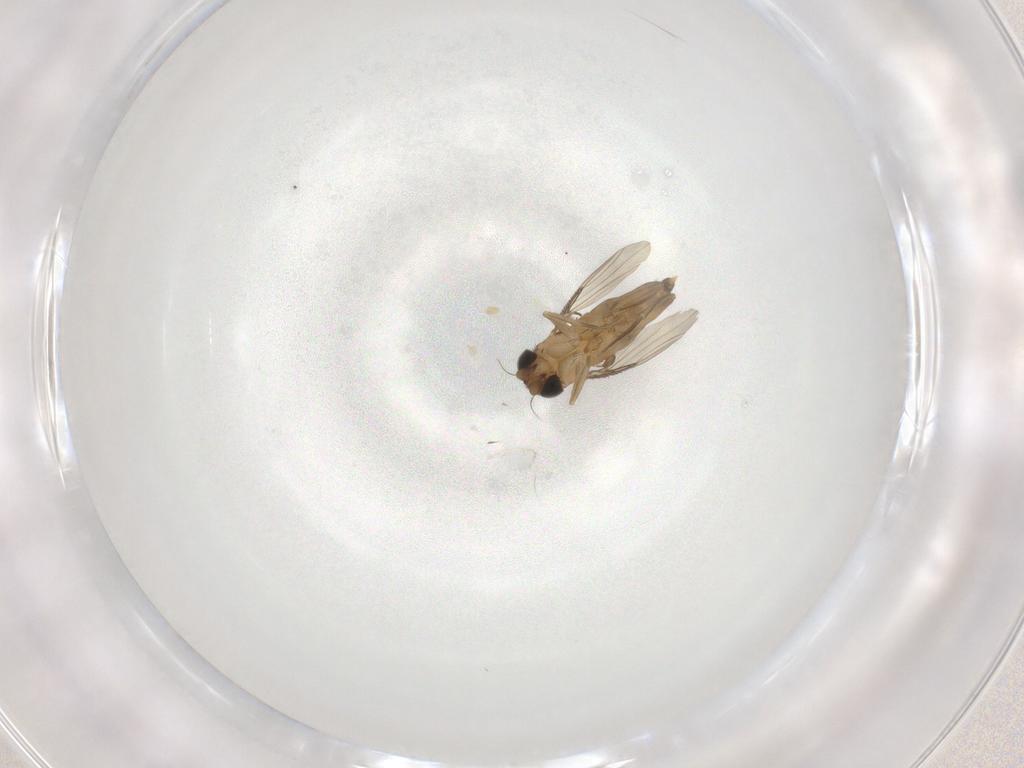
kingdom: Animalia
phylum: Arthropoda
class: Insecta
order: Diptera
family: Phoridae
